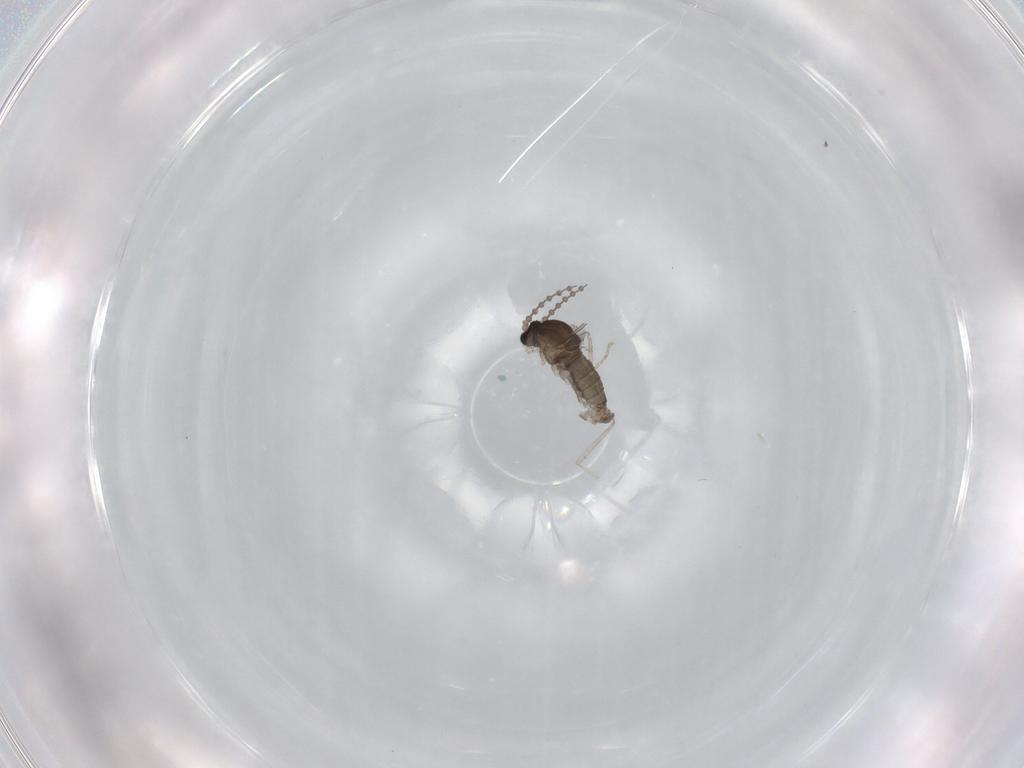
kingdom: Animalia
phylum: Arthropoda
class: Insecta
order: Diptera
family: Cecidomyiidae
